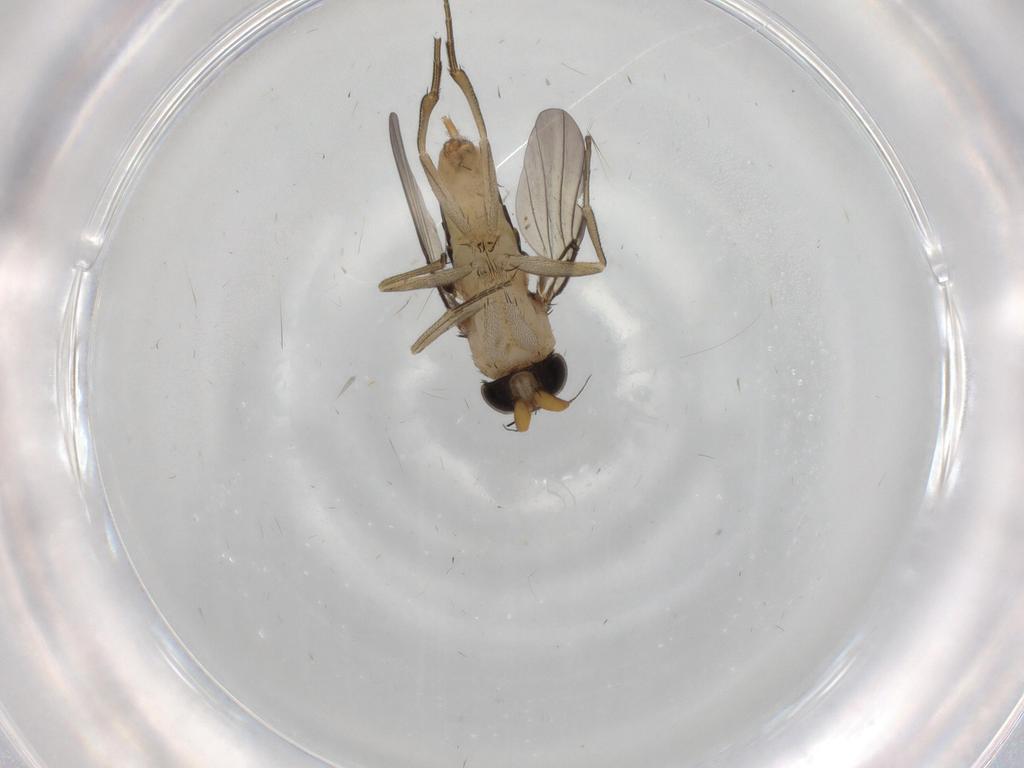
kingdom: Animalia
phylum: Arthropoda
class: Insecta
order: Diptera
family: Phoridae
